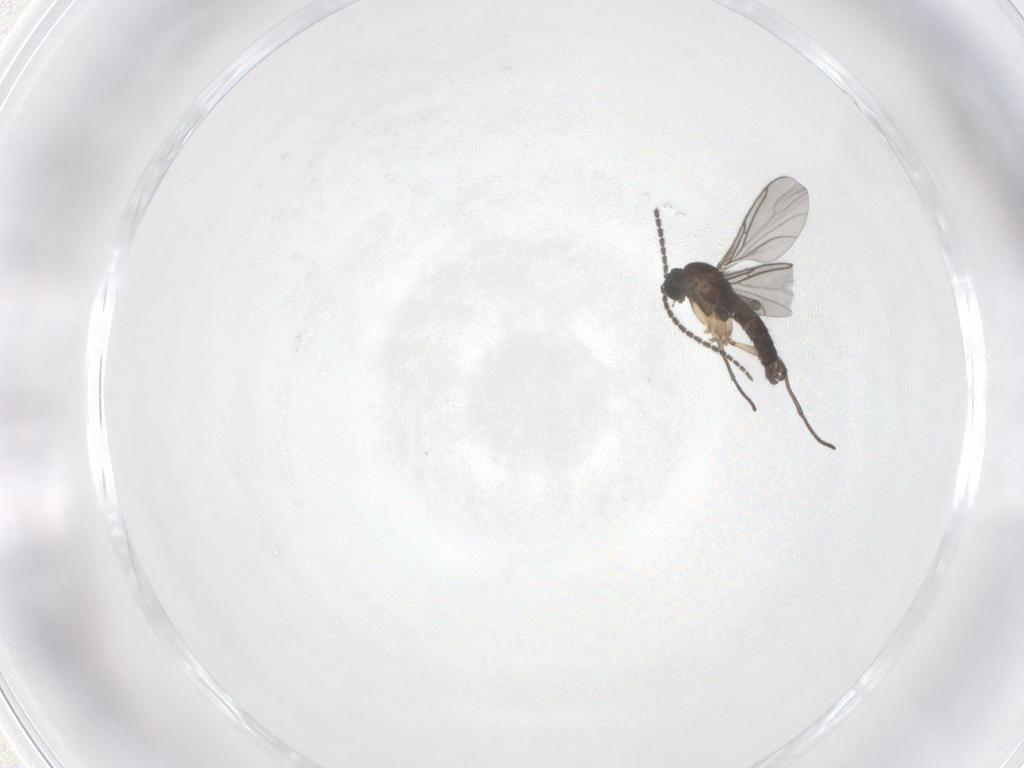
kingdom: Animalia
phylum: Arthropoda
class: Insecta
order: Diptera
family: Sciaridae
